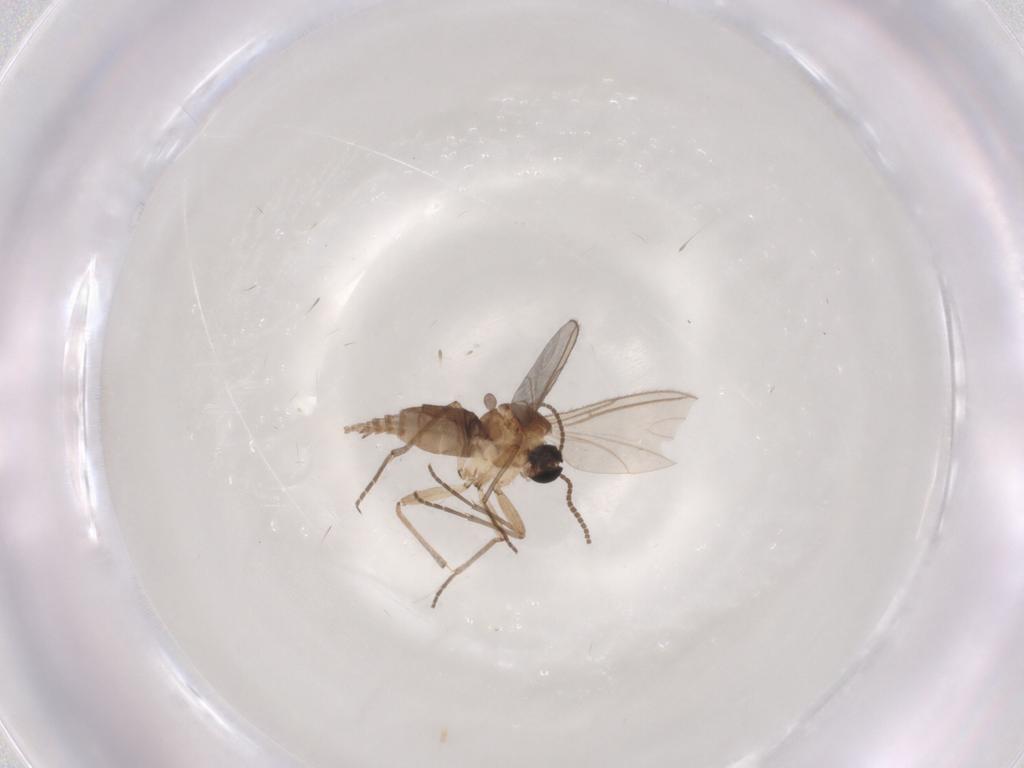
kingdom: Animalia
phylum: Arthropoda
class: Insecta
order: Diptera
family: Sciaridae
